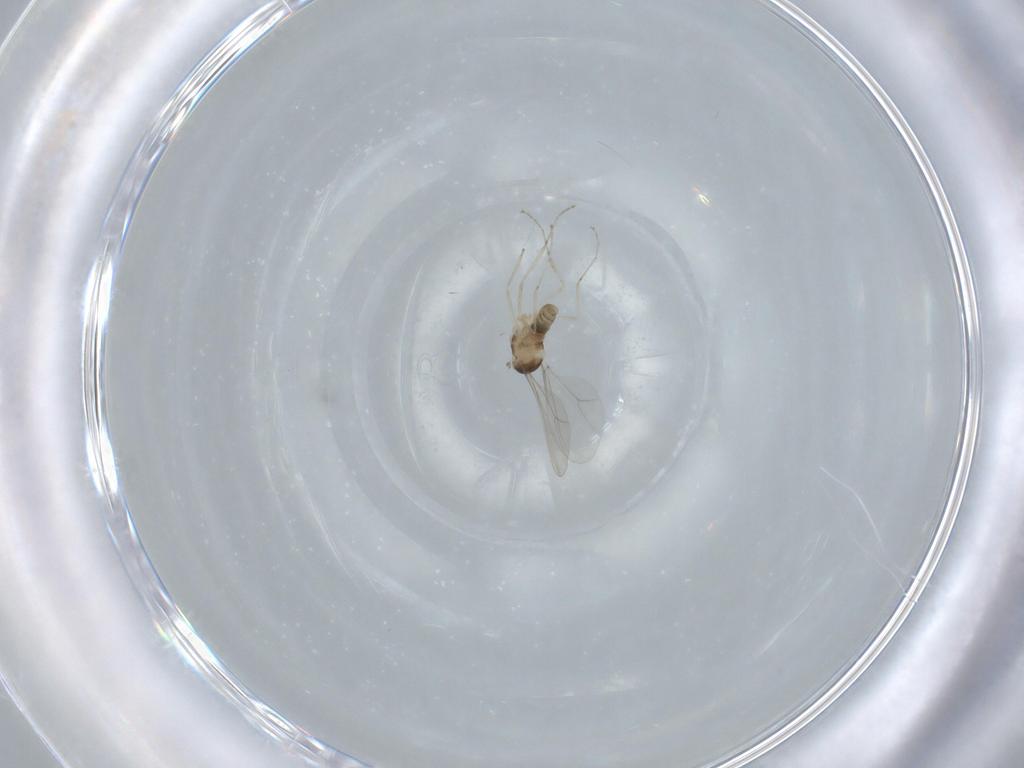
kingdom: Animalia
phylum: Arthropoda
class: Insecta
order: Diptera
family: Cecidomyiidae
